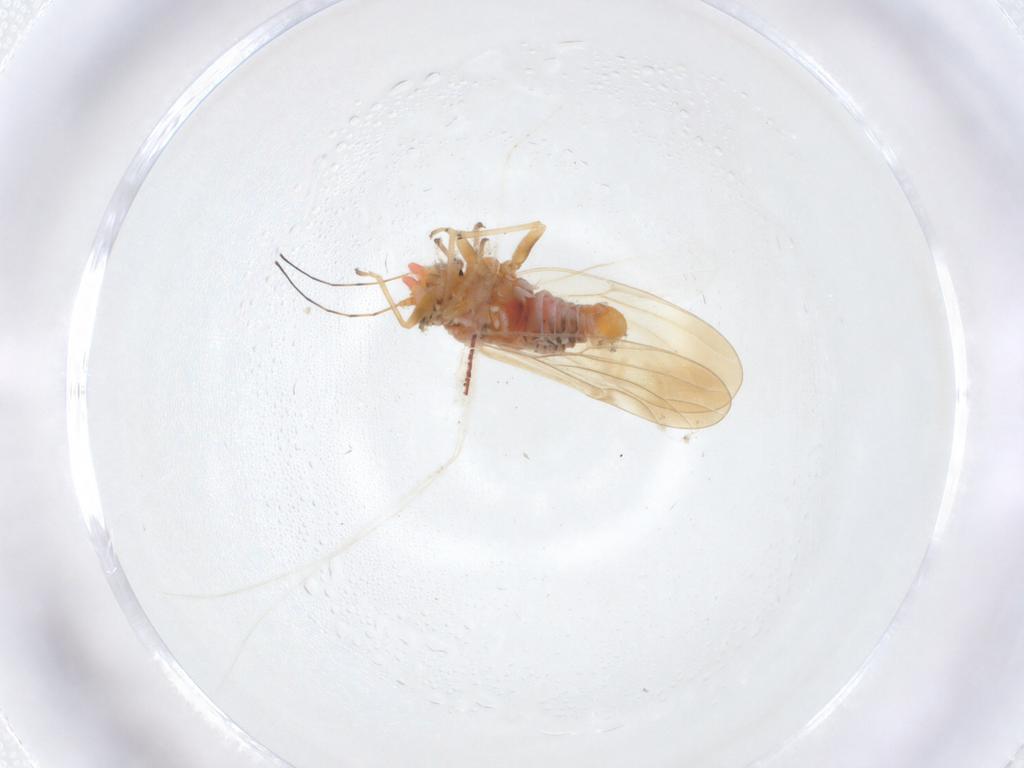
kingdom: Animalia
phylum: Arthropoda
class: Insecta
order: Hemiptera
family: Psyllidae
